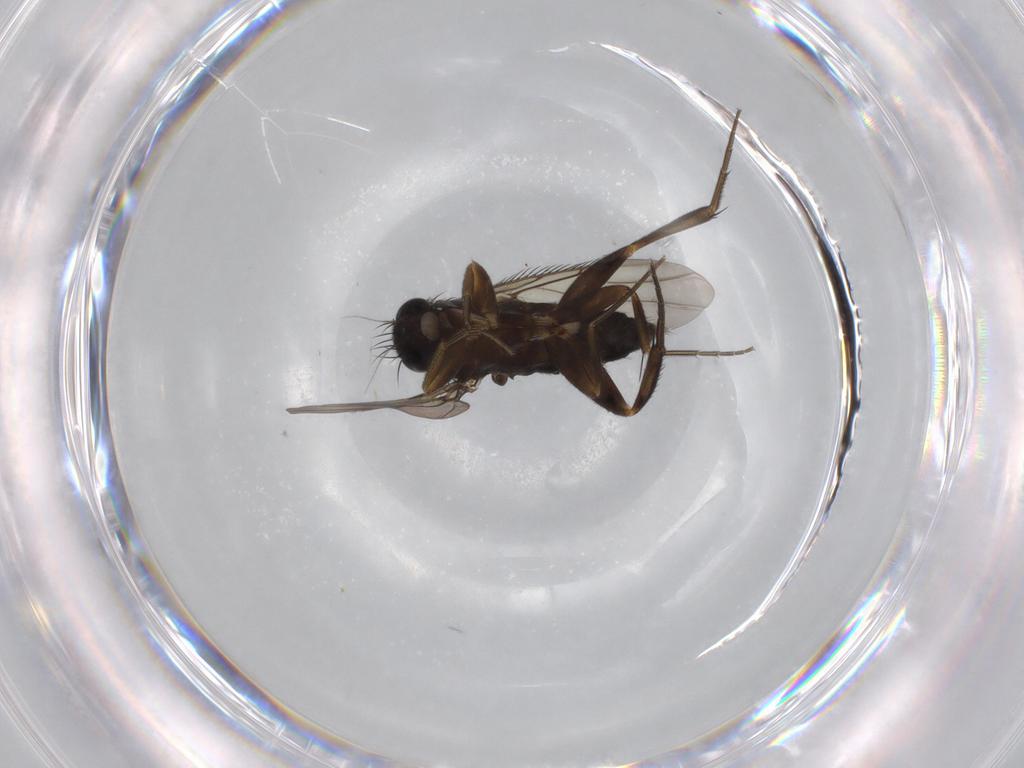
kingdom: Animalia
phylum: Arthropoda
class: Insecta
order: Diptera
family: Phoridae
